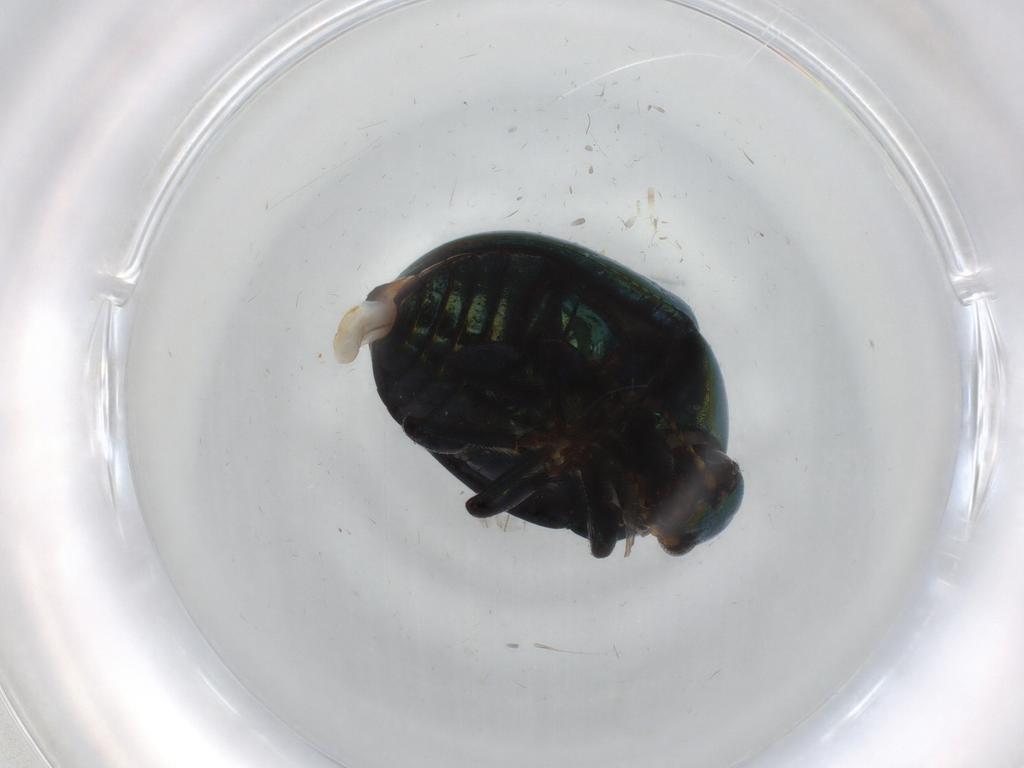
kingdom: Animalia
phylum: Arthropoda
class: Insecta
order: Coleoptera
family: Chrysomelidae
